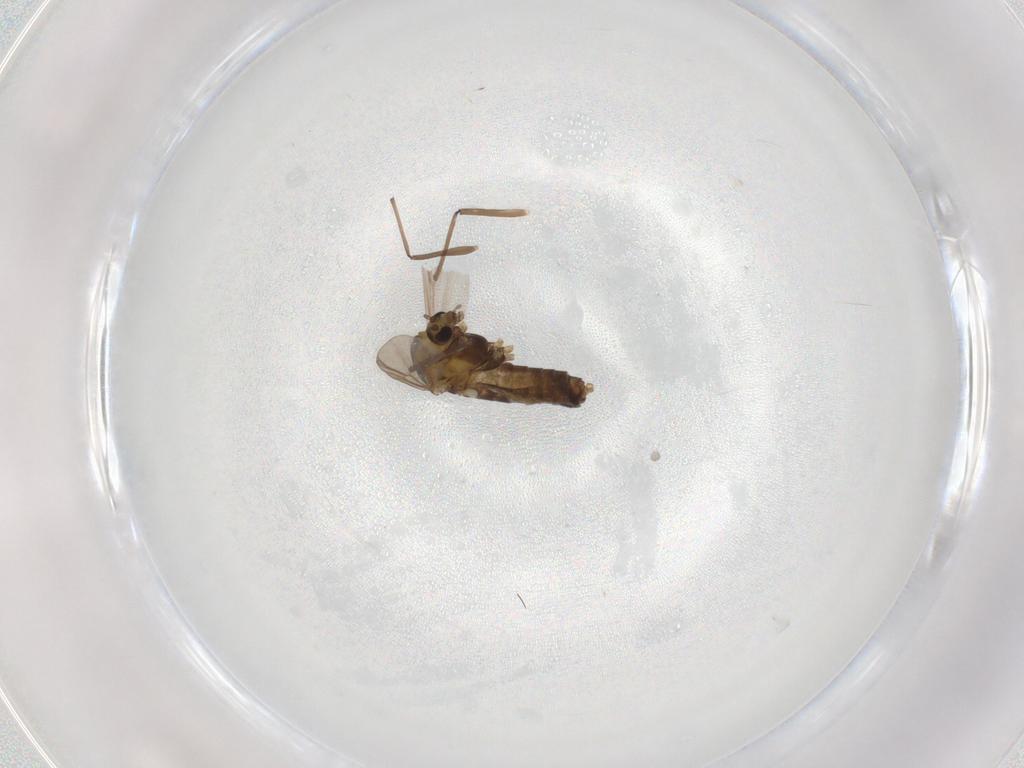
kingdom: Animalia
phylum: Arthropoda
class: Insecta
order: Diptera
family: Chironomidae
